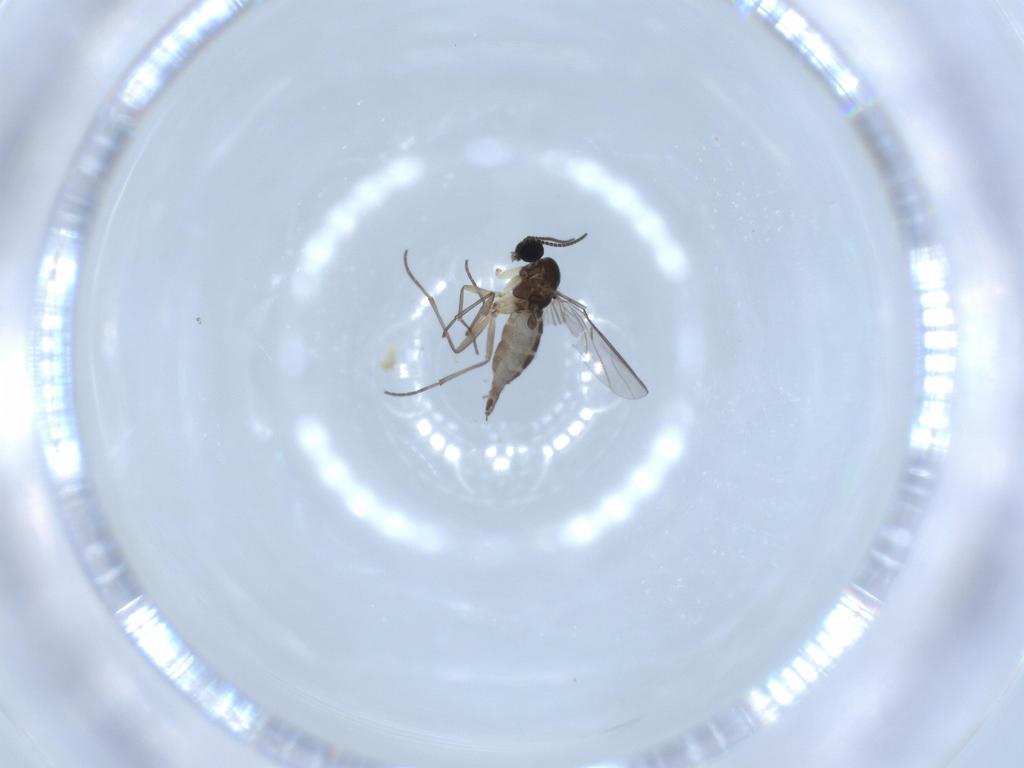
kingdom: Animalia
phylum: Arthropoda
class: Insecta
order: Diptera
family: Sciaridae
